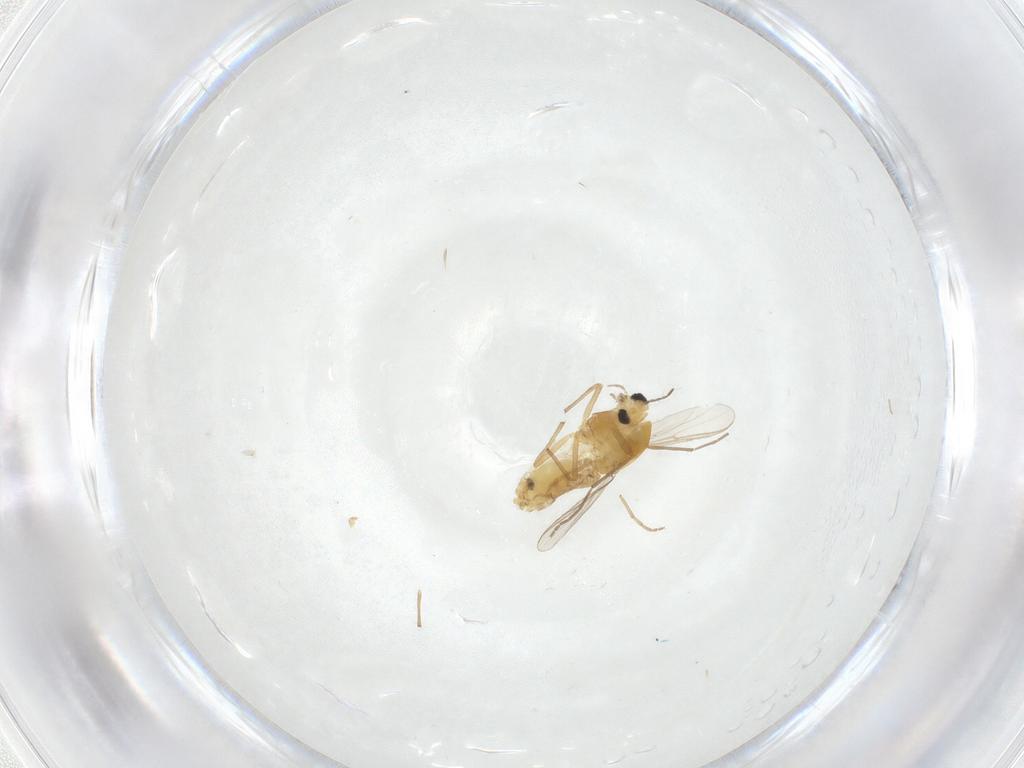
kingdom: Animalia
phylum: Arthropoda
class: Insecta
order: Diptera
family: Chironomidae
